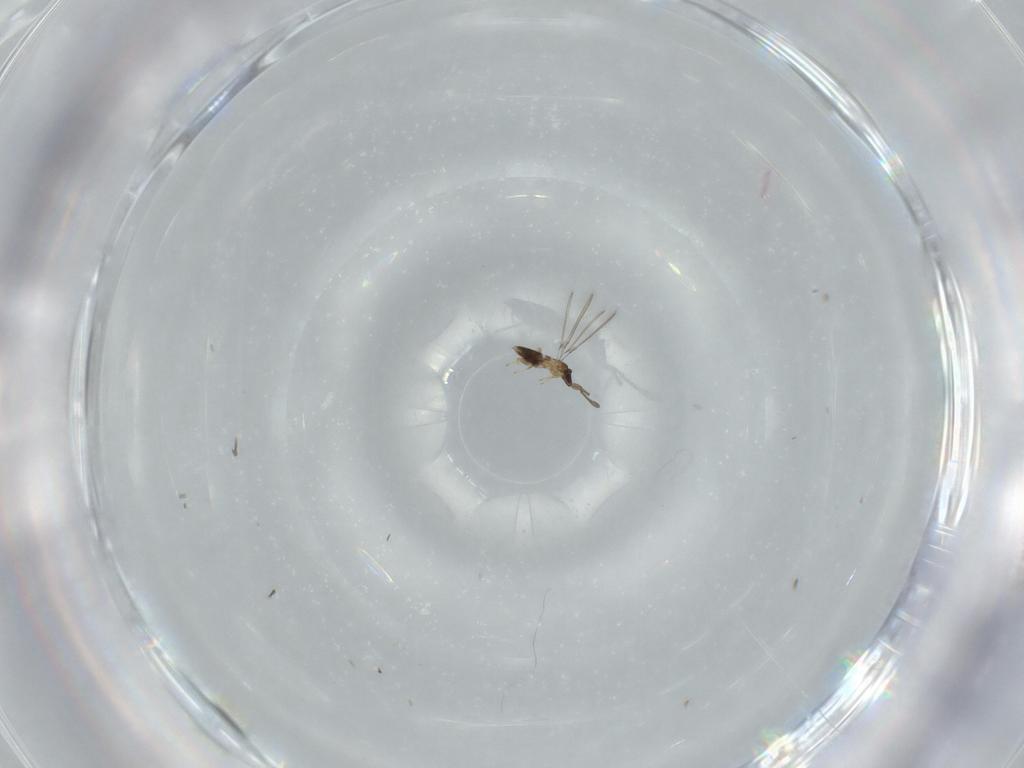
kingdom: Animalia
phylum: Arthropoda
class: Insecta
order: Hymenoptera
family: Mymaridae
